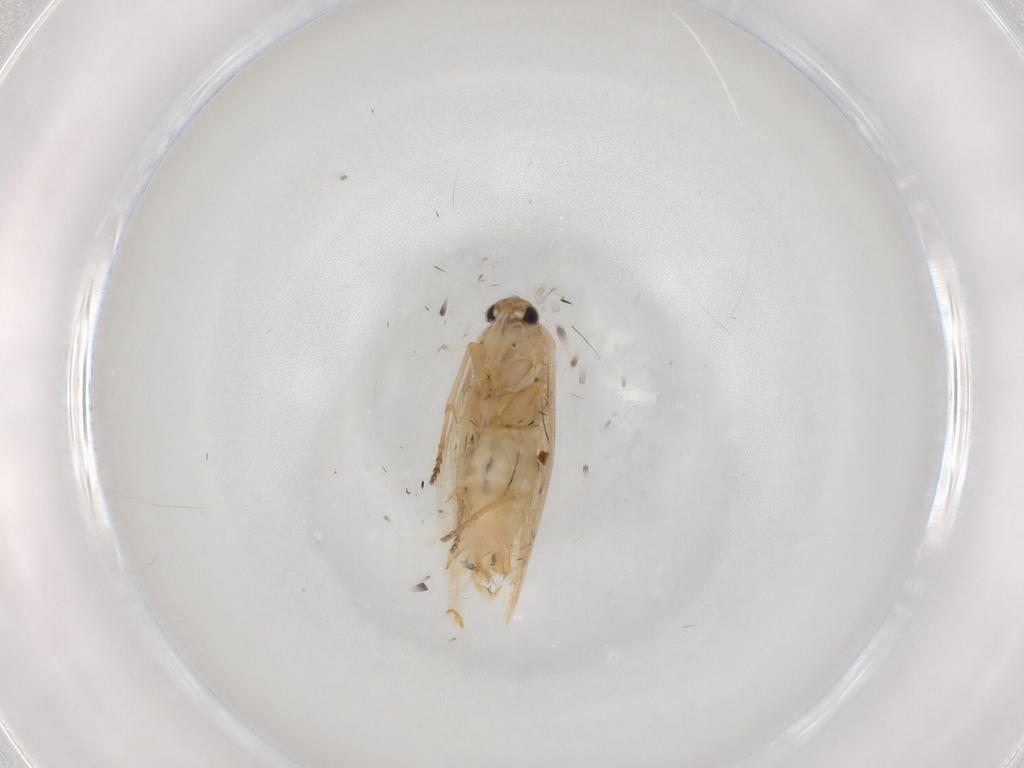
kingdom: Animalia
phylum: Arthropoda
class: Insecta
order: Lepidoptera
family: Bucculatricidae
